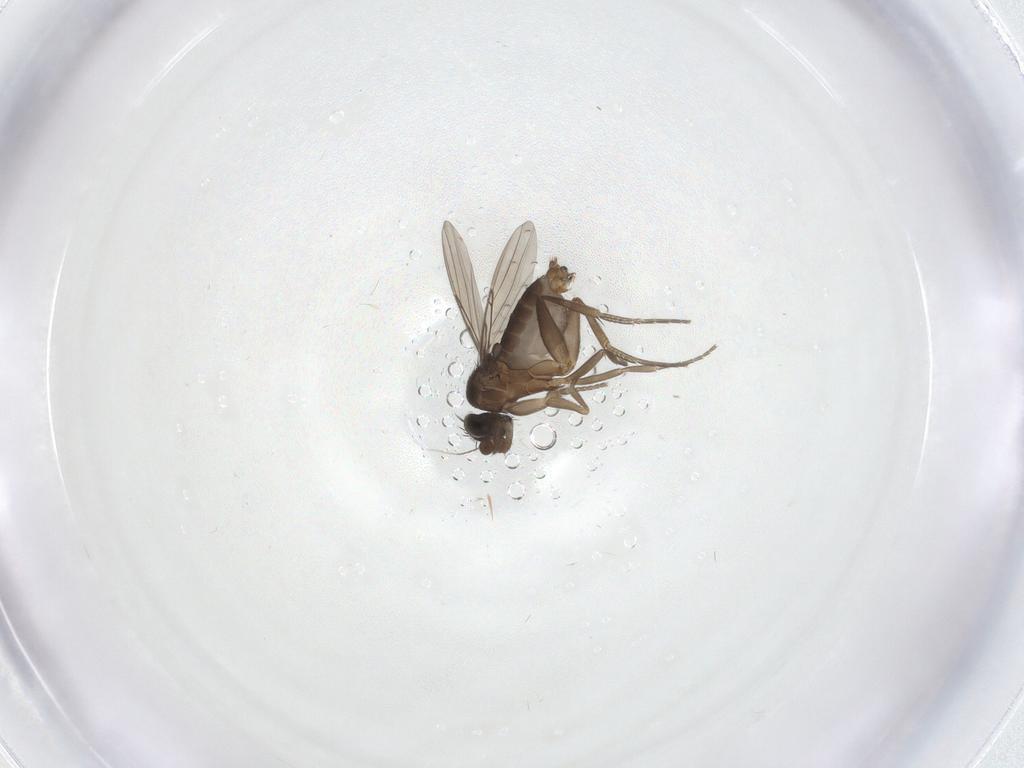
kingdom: Animalia
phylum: Arthropoda
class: Insecta
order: Diptera
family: Phoridae
